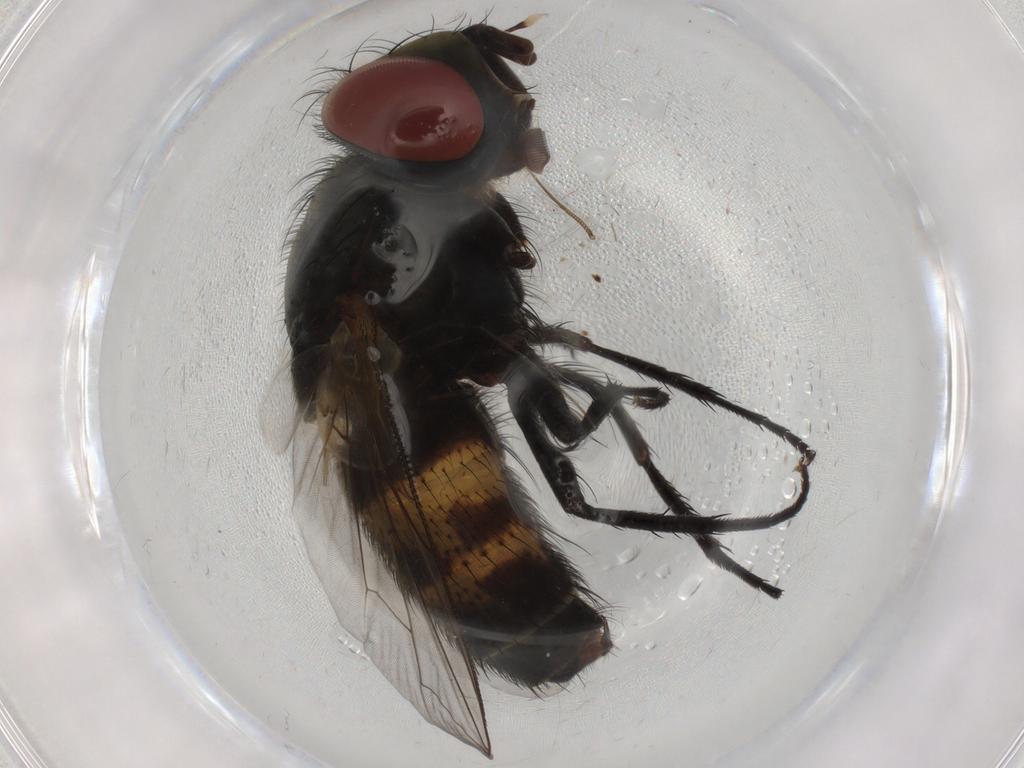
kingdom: Animalia
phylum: Arthropoda
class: Insecta
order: Diptera
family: Sarcophagidae
